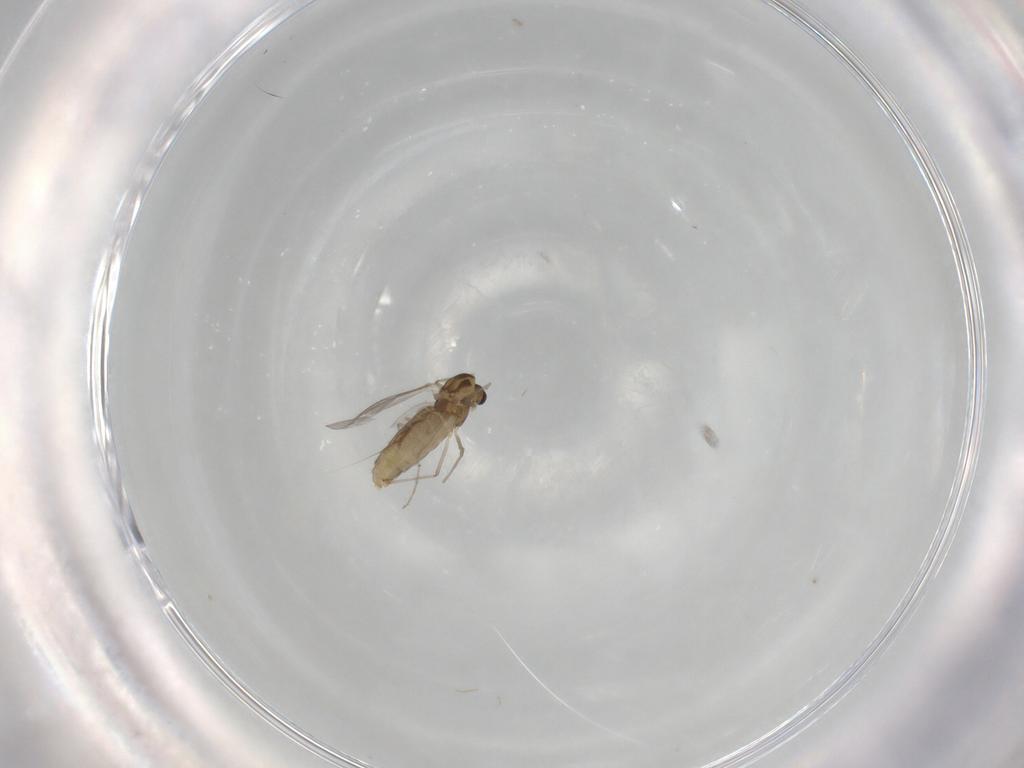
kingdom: Animalia
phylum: Arthropoda
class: Insecta
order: Diptera
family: Chironomidae
